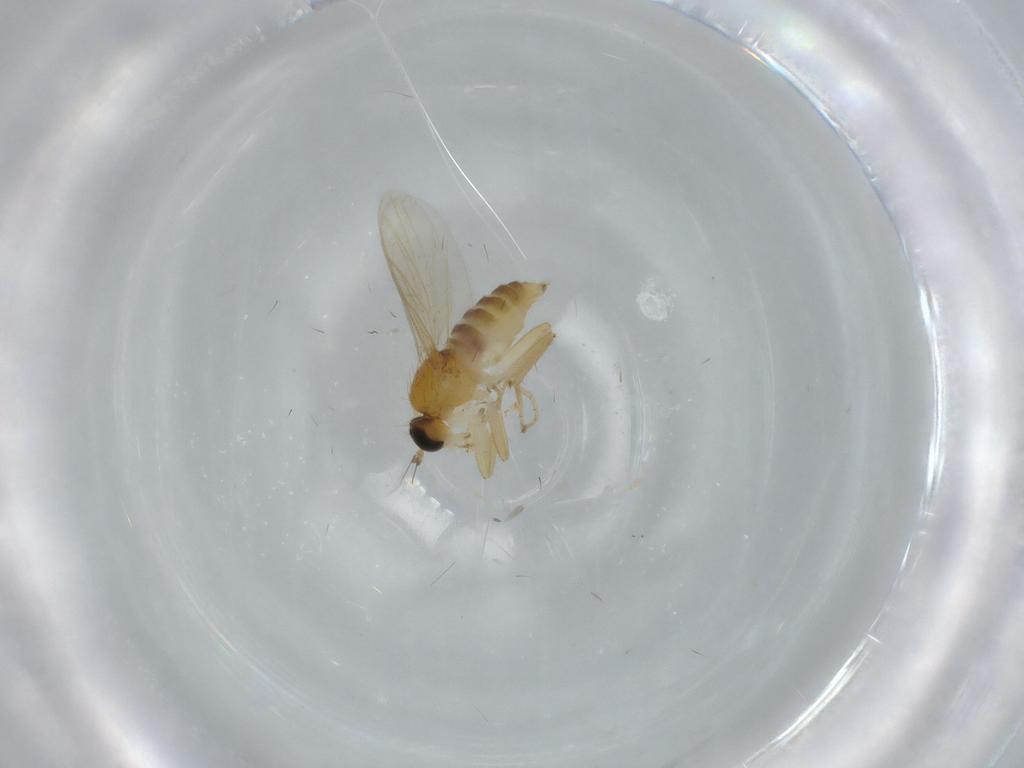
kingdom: Animalia
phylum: Arthropoda
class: Insecta
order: Diptera
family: Hybotidae
